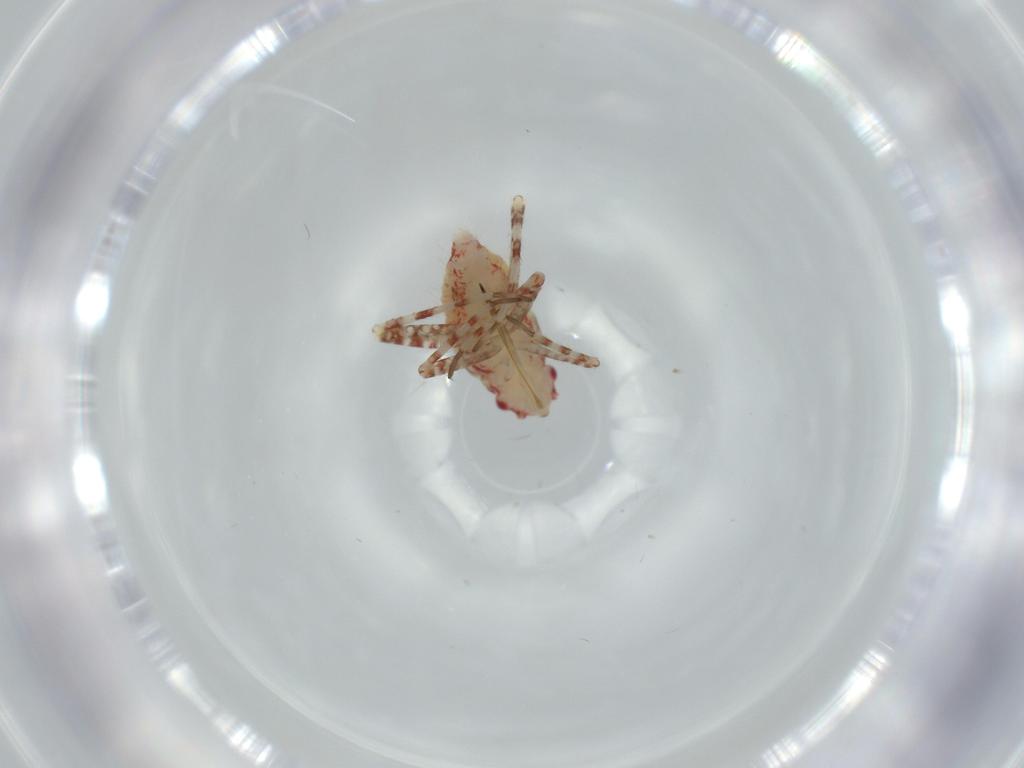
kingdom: Animalia
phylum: Arthropoda
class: Insecta
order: Hemiptera
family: Miridae
